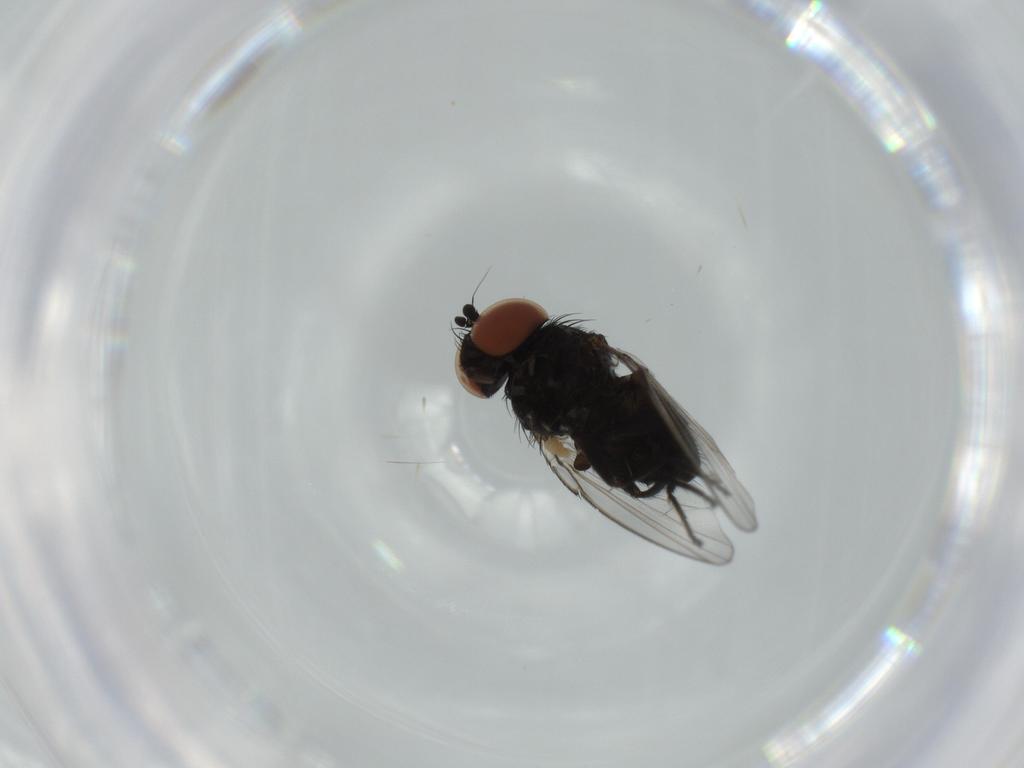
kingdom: Animalia
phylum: Arthropoda
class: Insecta
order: Diptera
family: Milichiidae
